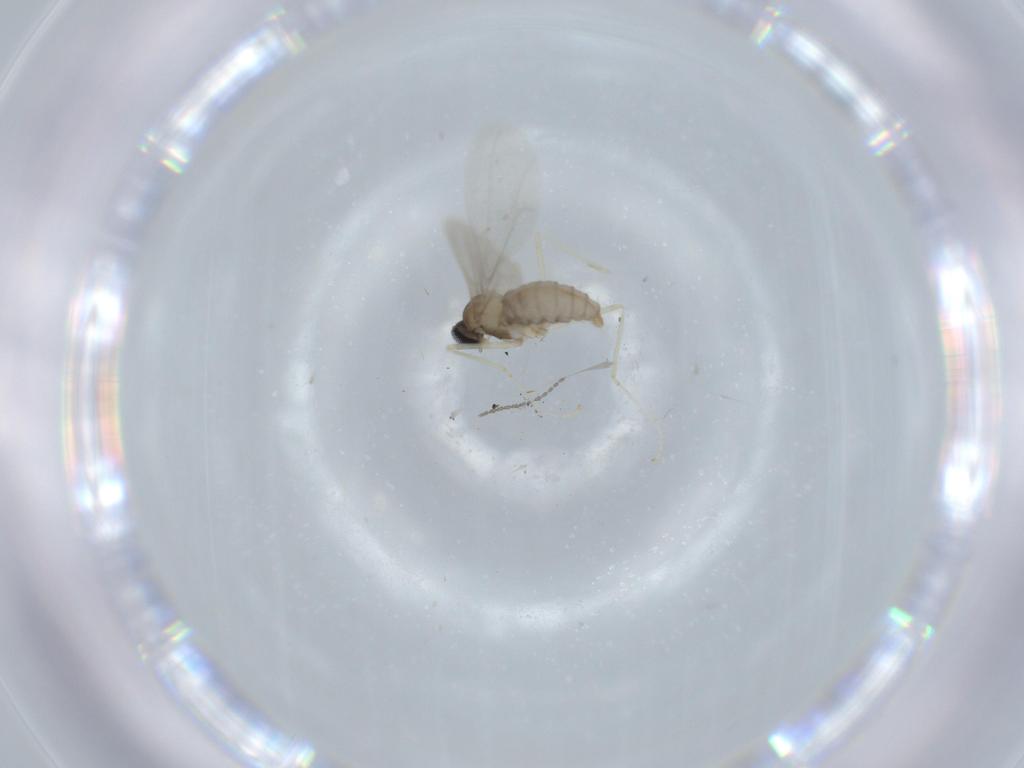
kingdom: Animalia
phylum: Arthropoda
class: Insecta
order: Diptera
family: Cecidomyiidae
